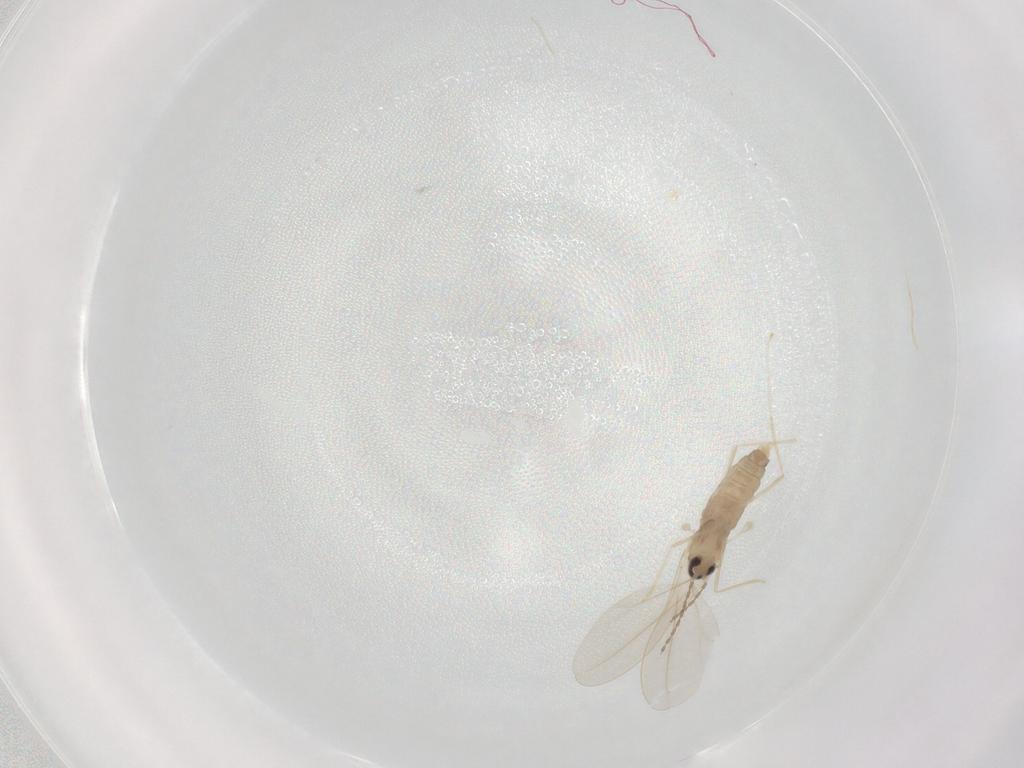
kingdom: Animalia
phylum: Arthropoda
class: Insecta
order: Diptera
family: Cecidomyiidae
